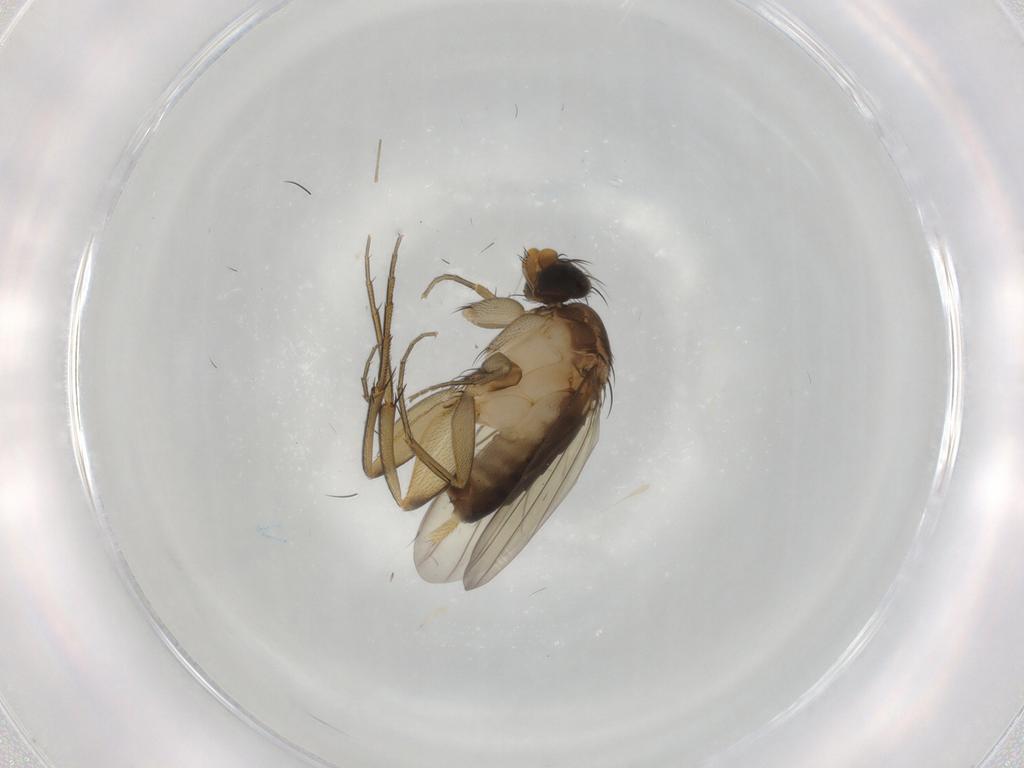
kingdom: Animalia
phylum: Arthropoda
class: Insecta
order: Diptera
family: Phoridae
